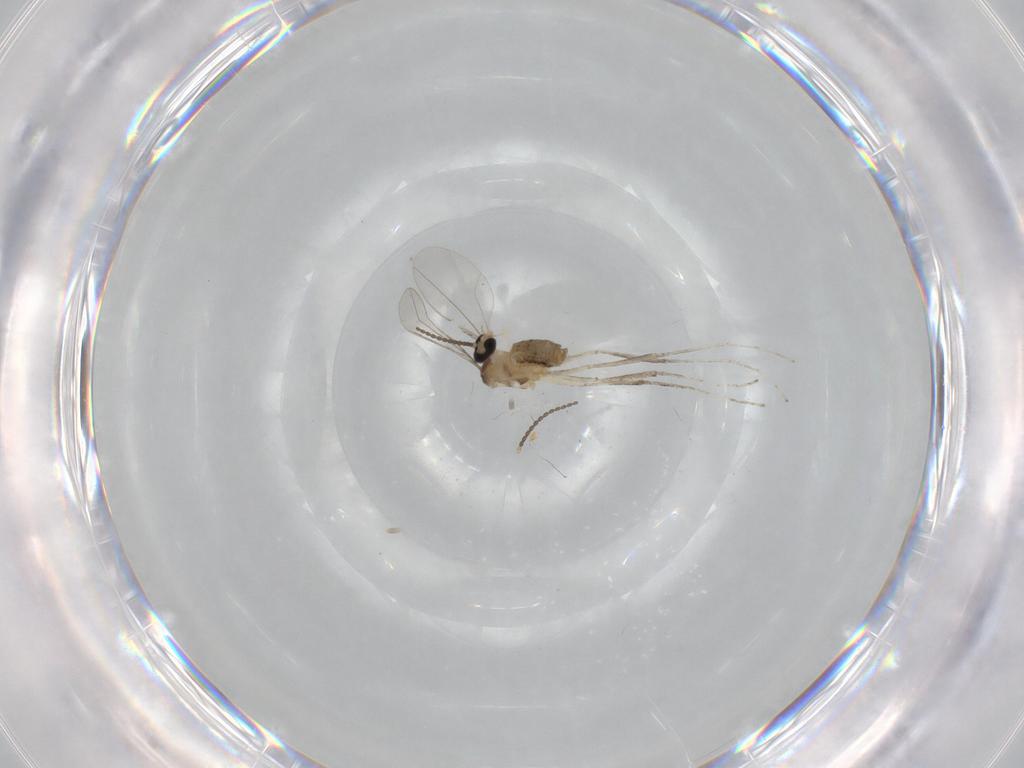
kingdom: Animalia
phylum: Arthropoda
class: Insecta
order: Diptera
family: Cecidomyiidae
